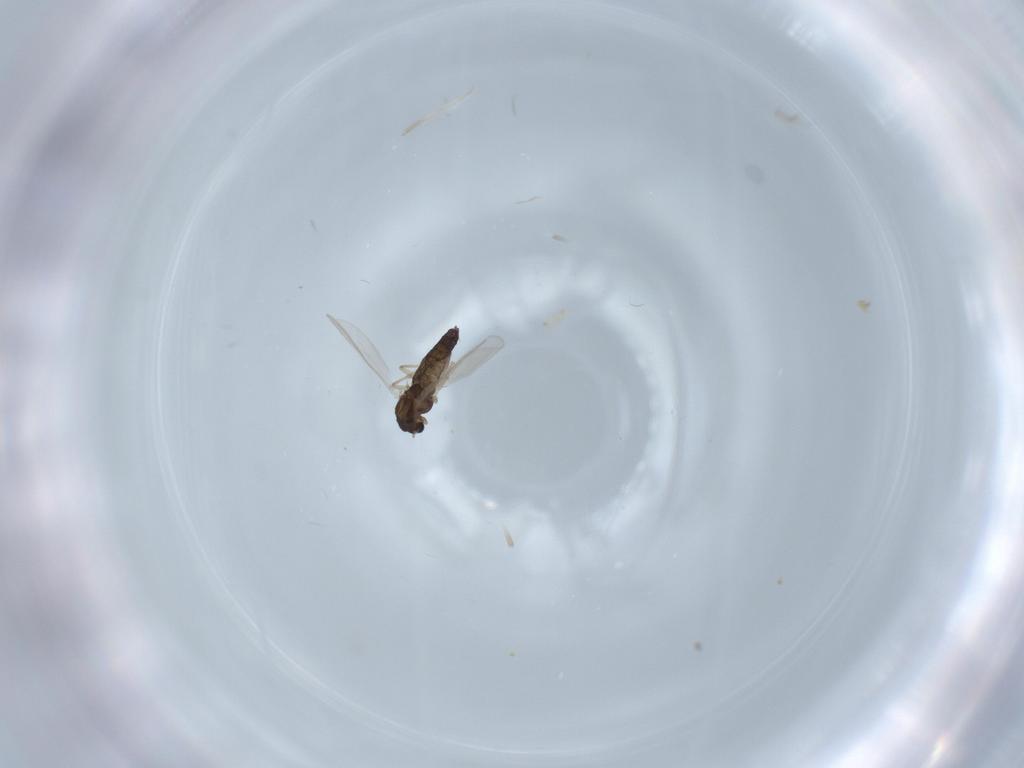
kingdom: Animalia
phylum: Arthropoda
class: Insecta
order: Diptera
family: Chironomidae
